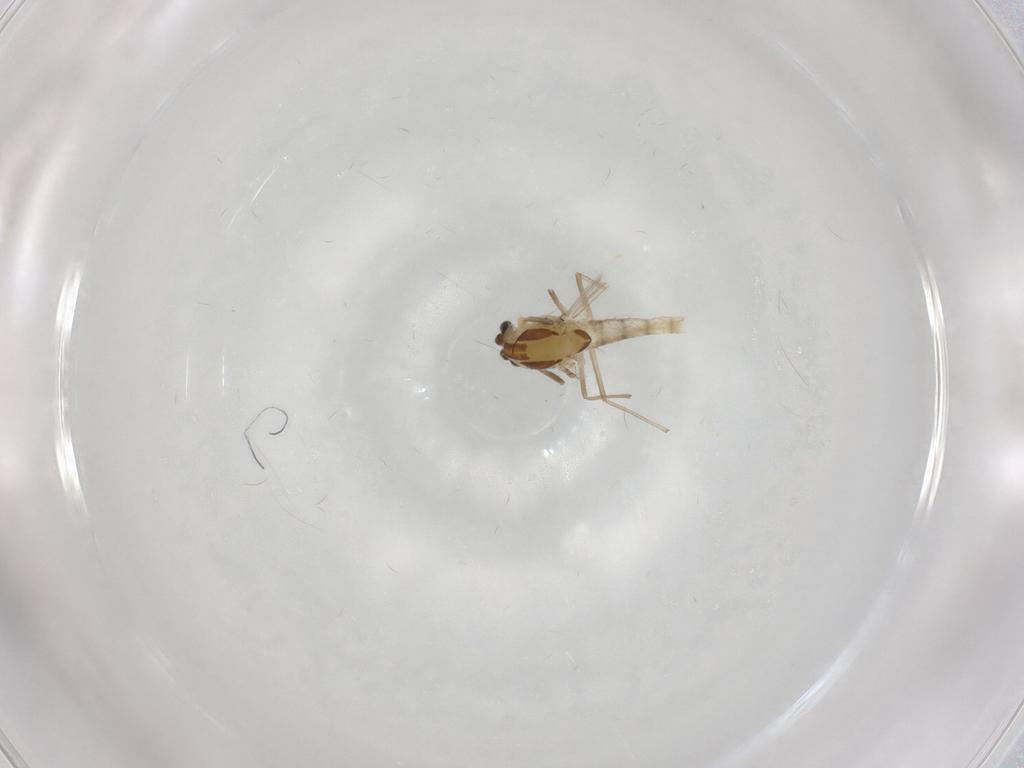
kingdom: Animalia
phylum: Arthropoda
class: Insecta
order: Diptera
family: Chironomidae
